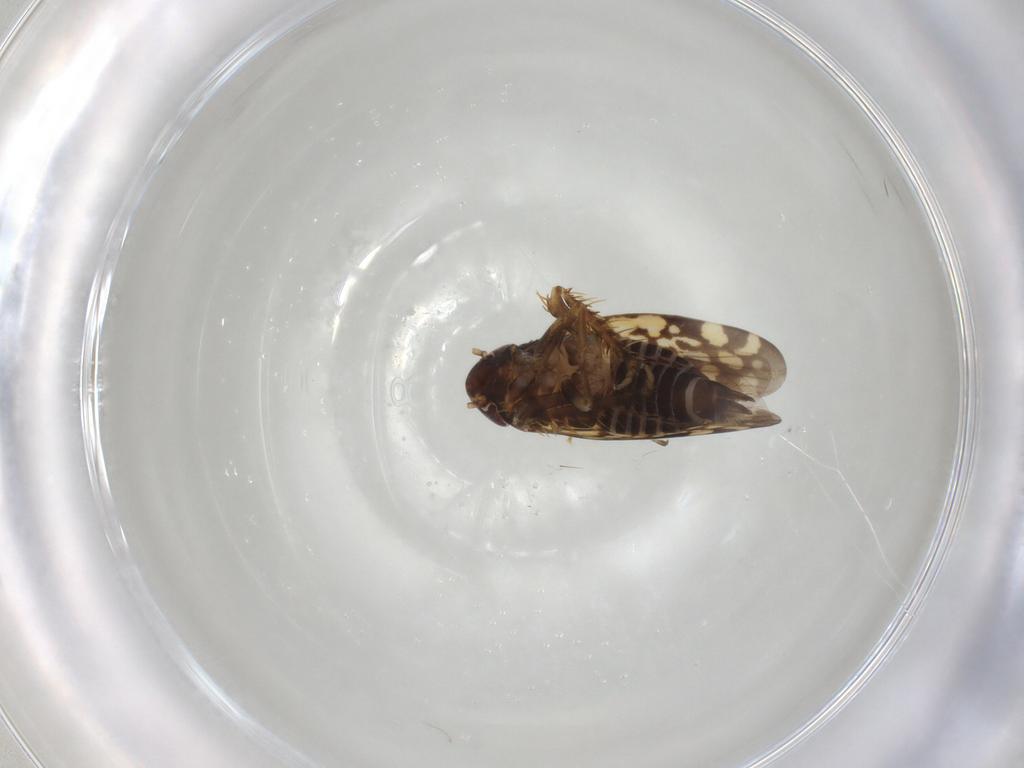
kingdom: Animalia
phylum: Arthropoda
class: Insecta
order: Hemiptera
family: Cicadellidae
